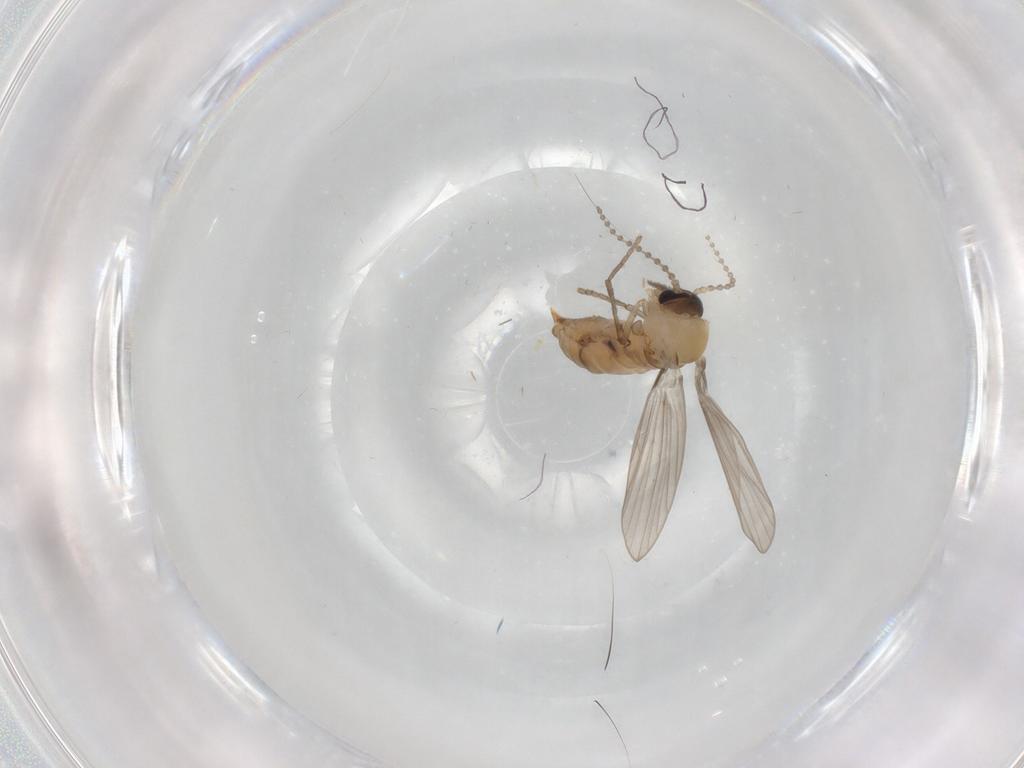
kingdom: Animalia
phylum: Arthropoda
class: Insecta
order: Diptera
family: Psychodidae
